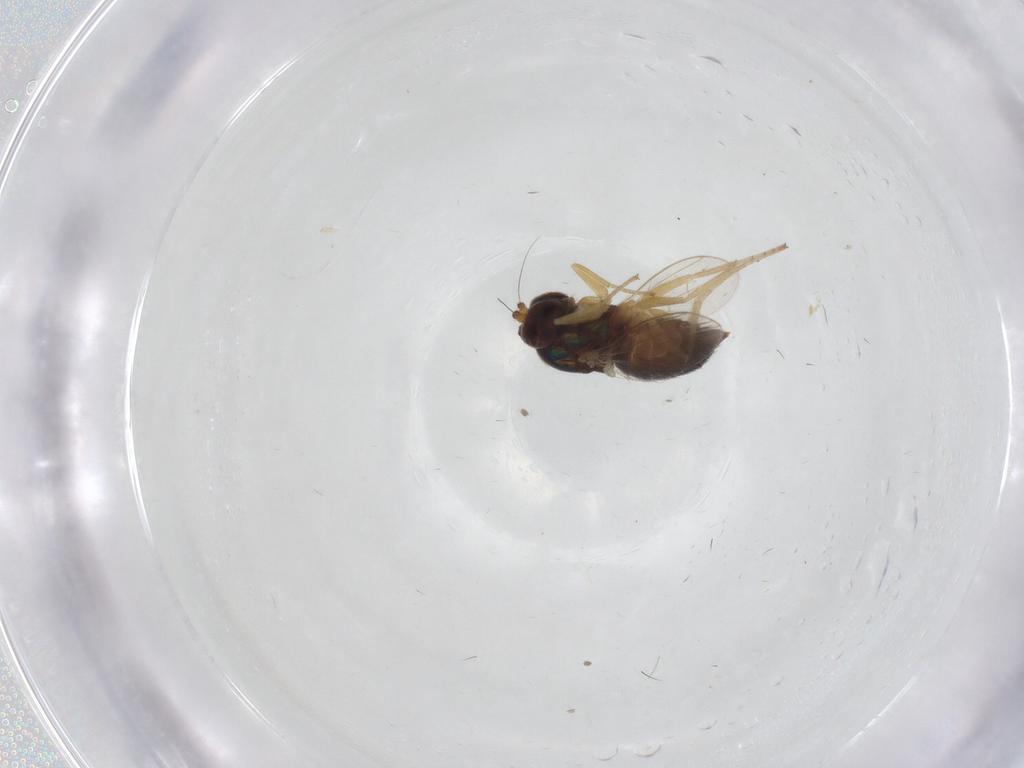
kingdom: Animalia
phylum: Arthropoda
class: Insecta
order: Diptera
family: Dolichopodidae
